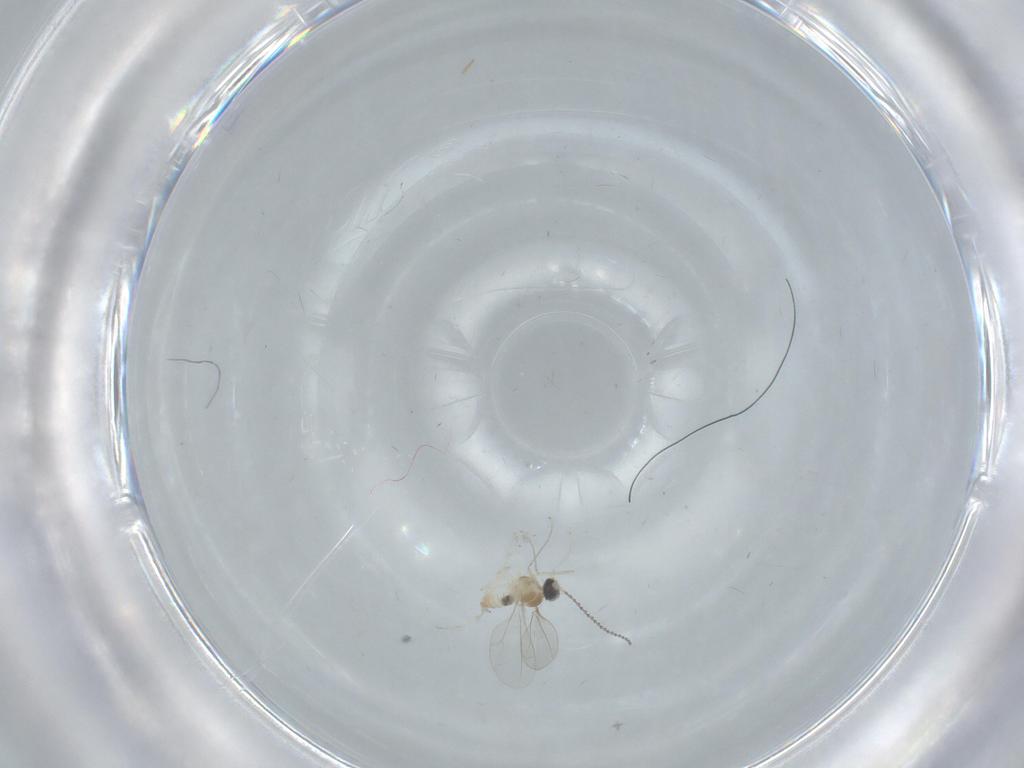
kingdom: Animalia
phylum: Arthropoda
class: Insecta
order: Diptera
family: Cecidomyiidae
